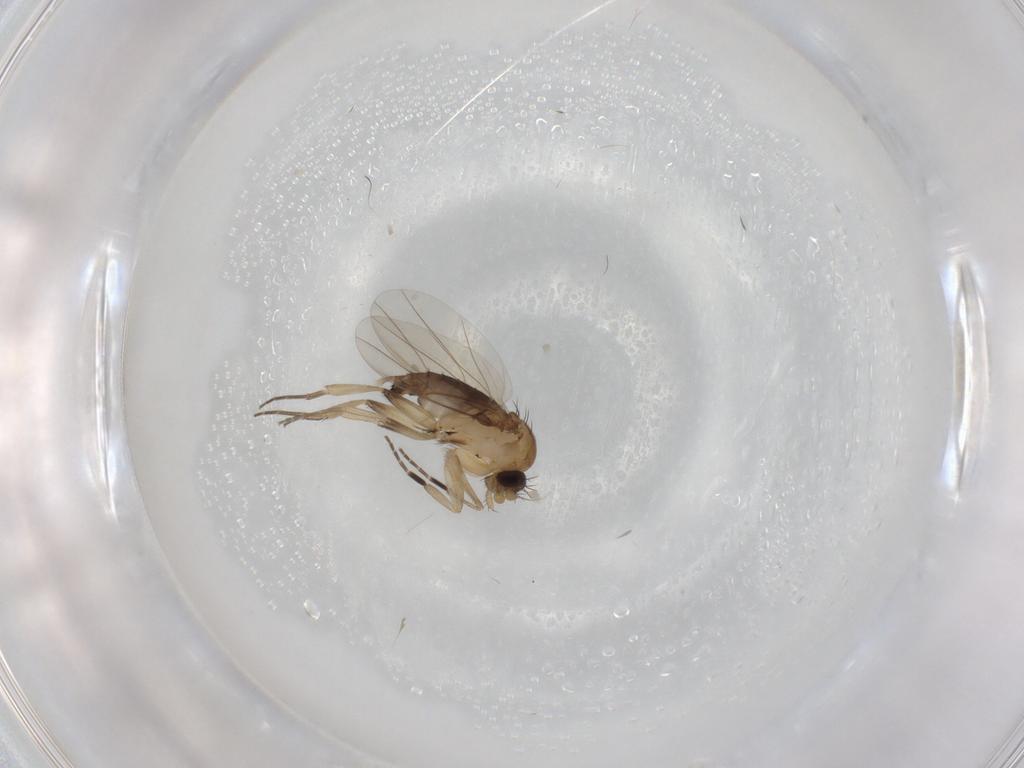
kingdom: Animalia
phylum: Arthropoda
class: Insecta
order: Diptera
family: Phoridae
